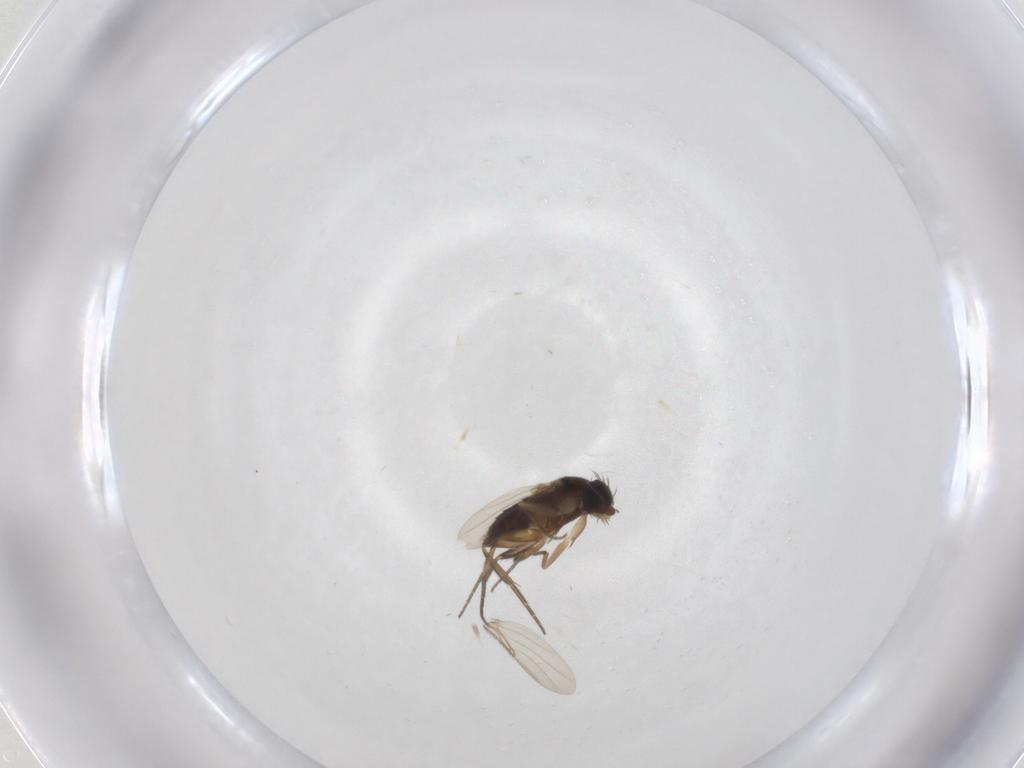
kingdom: Animalia
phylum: Arthropoda
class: Insecta
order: Diptera
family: Phoridae
